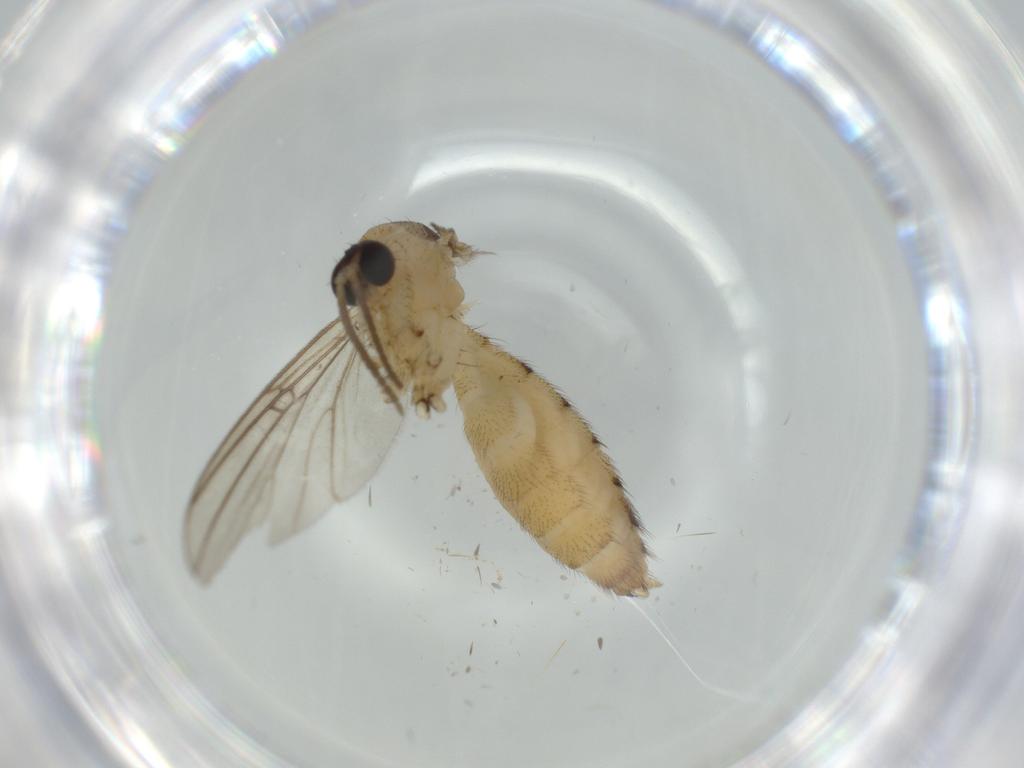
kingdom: Animalia
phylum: Arthropoda
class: Insecta
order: Diptera
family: Mycetophilidae
